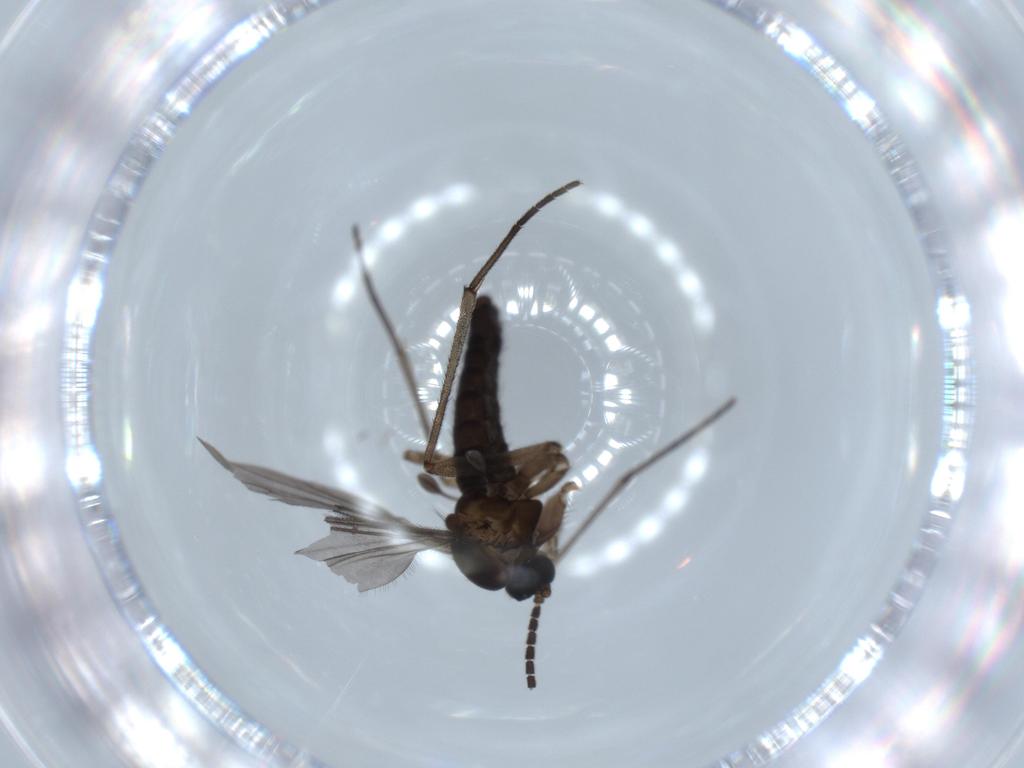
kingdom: Animalia
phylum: Arthropoda
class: Insecta
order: Diptera
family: Sciaridae
